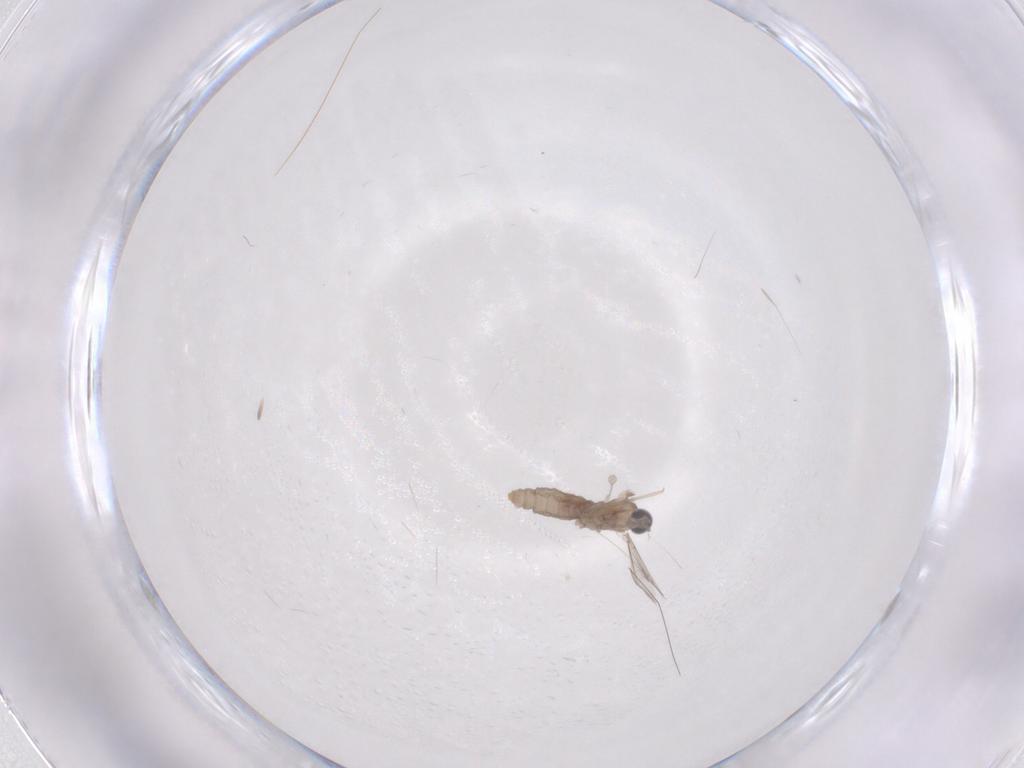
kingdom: Animalia
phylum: Arthropoda
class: Insecta
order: Diptera
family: Cecidomyiidae
